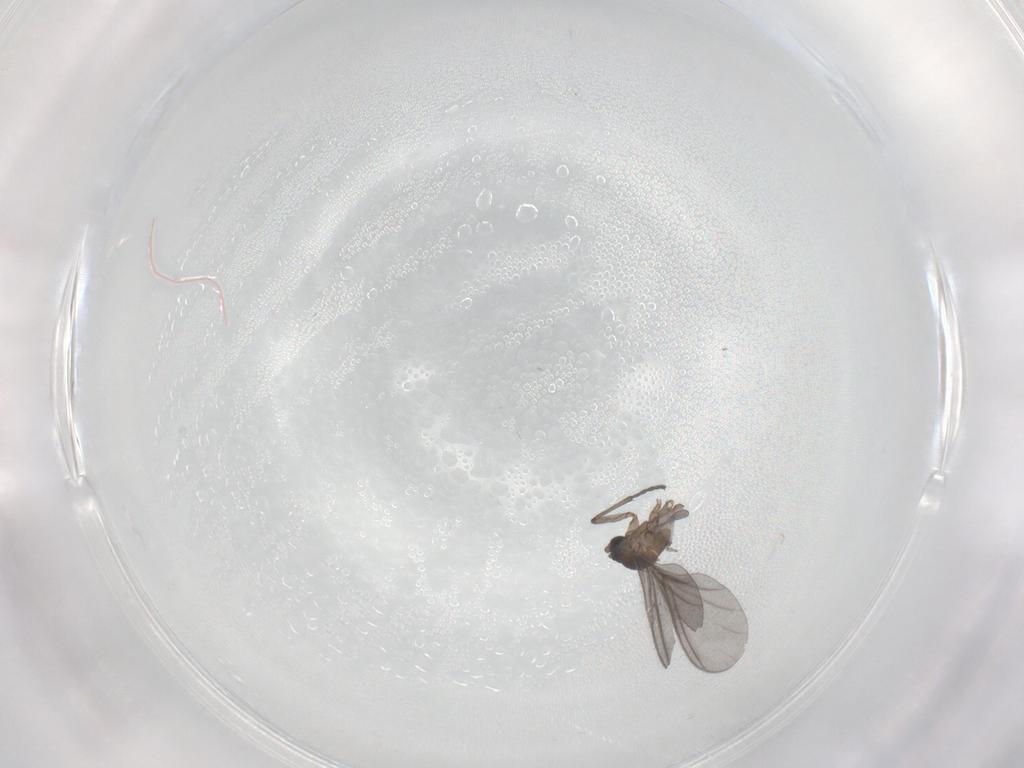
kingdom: Animalia
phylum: Arthropoda
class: Insecta
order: Diptera
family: Sciaridae
